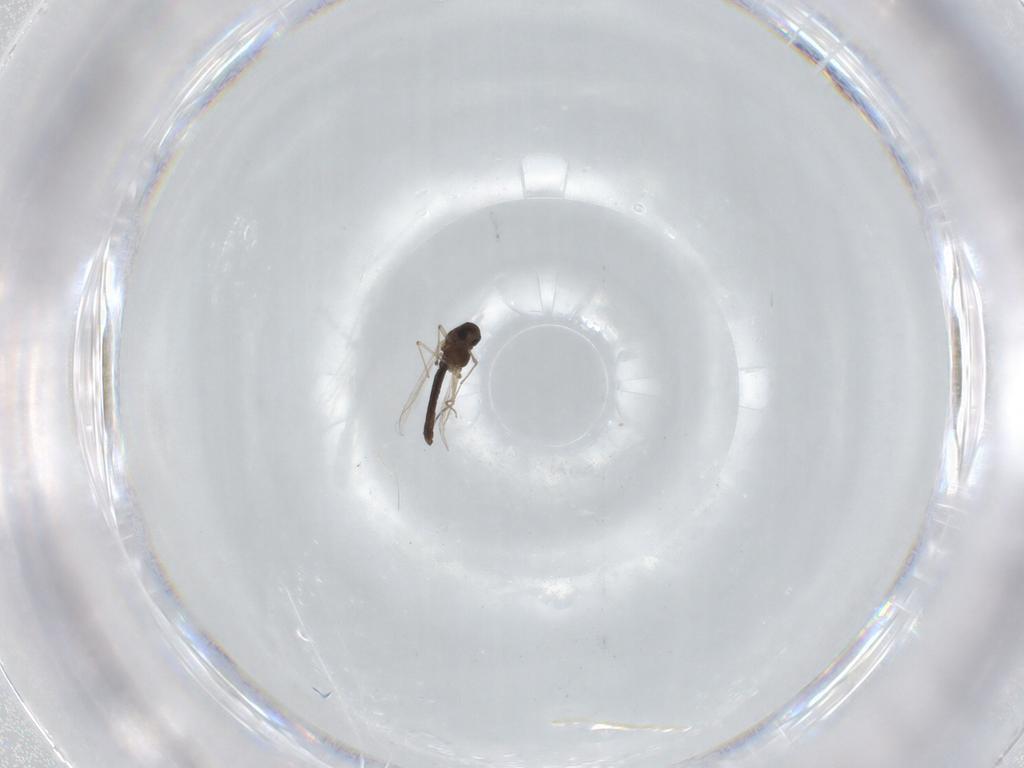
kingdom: Animalia
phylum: Arthropoda
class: Insecta
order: Diptera
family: Chironomidae
